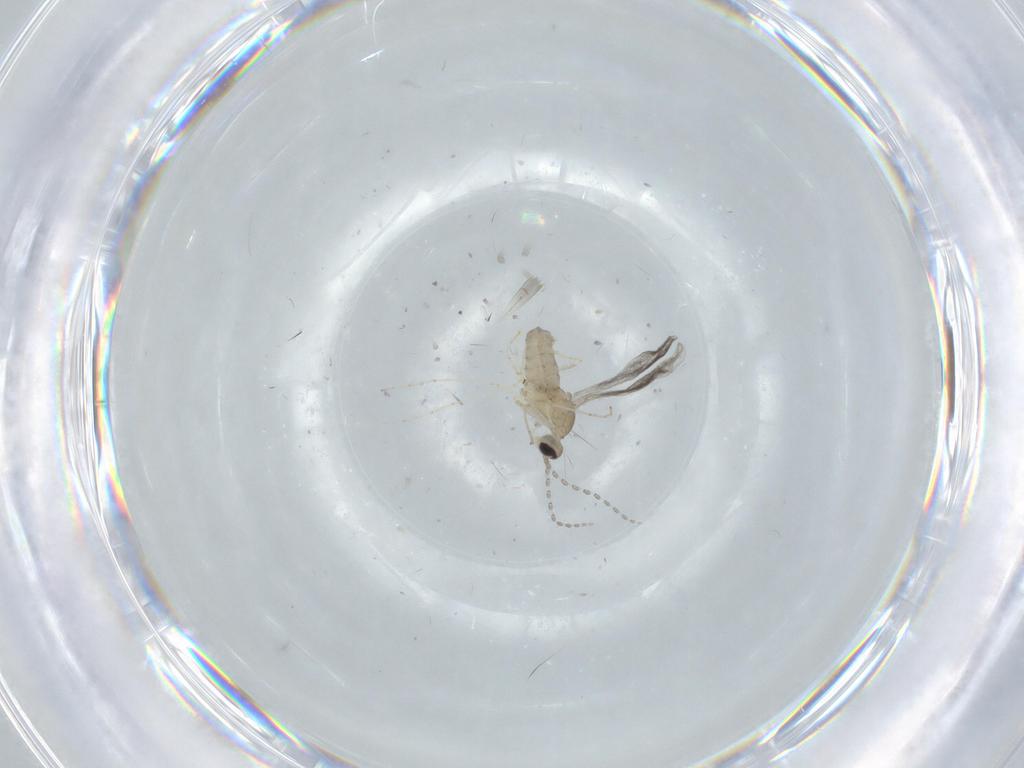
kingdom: Animalia
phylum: Arthropoda
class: Insecta
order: Diptera
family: Cecidomyiidae
